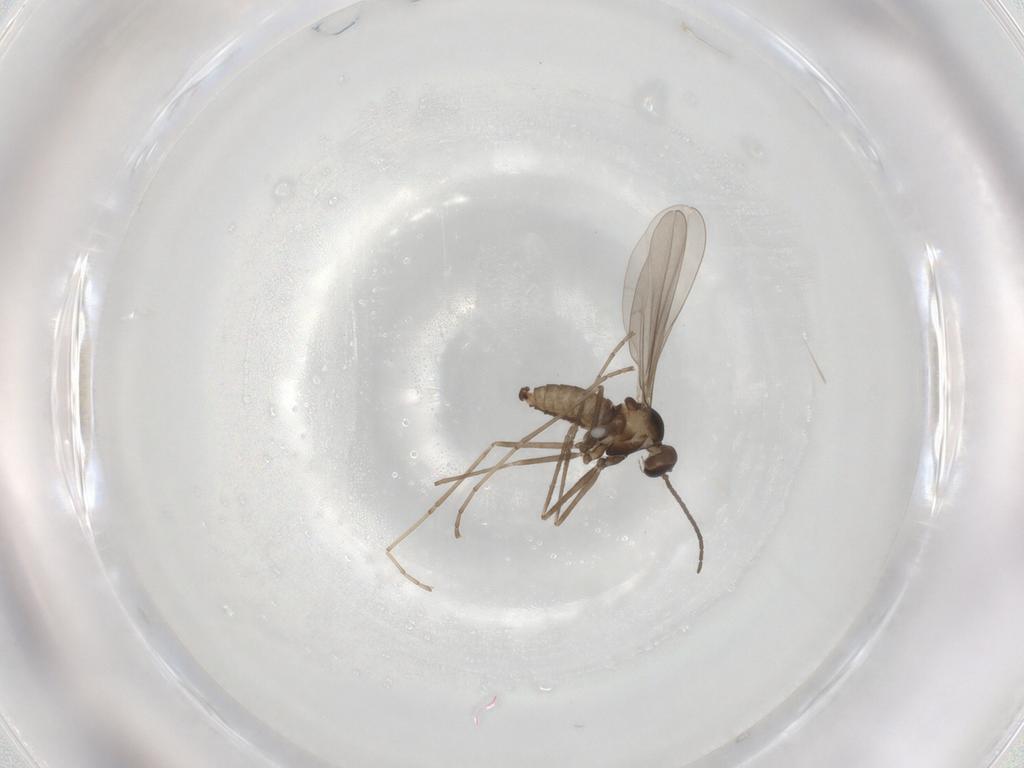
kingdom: Animalia
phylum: Arthropoda
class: Insecta
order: Diptera
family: Cecidomyiidae
